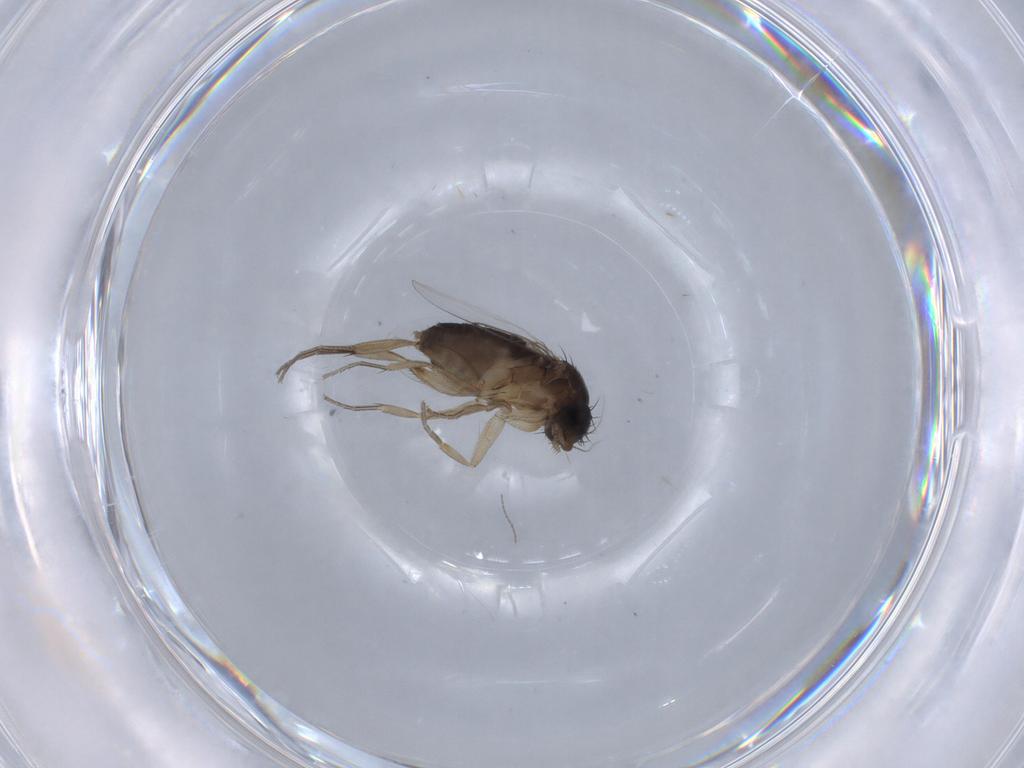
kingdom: Animalia
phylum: Arthropoda
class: Insecta
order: Diptera
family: Phoridae
